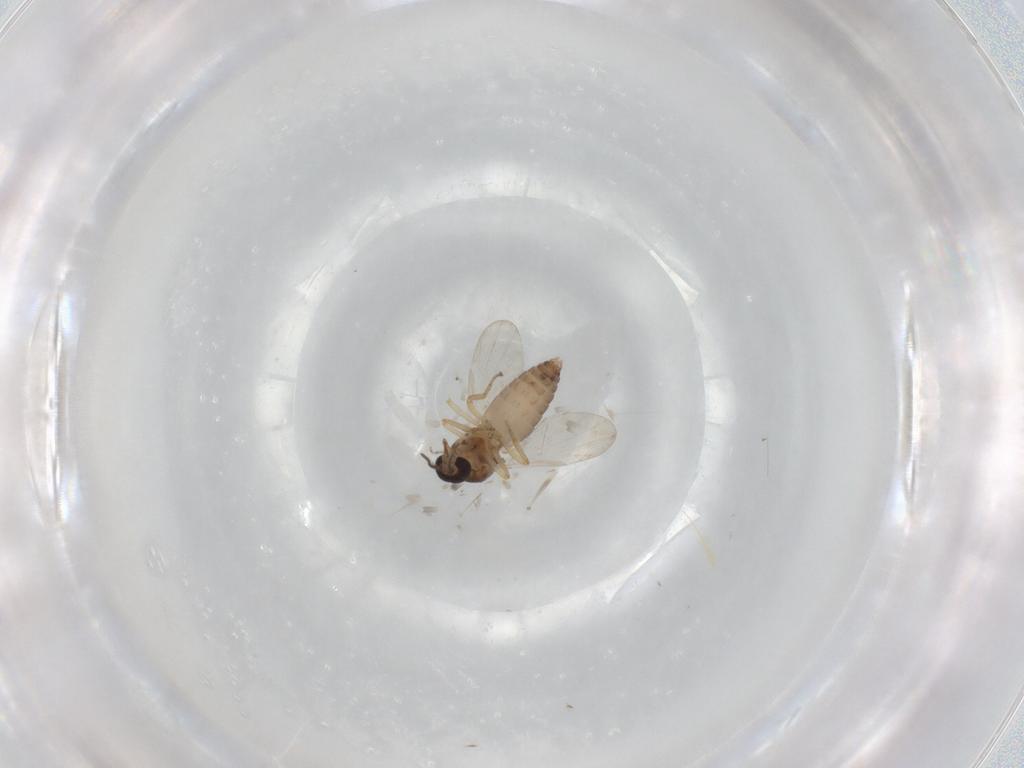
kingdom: Animalia
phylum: Arthropoda
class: Insecta
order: Diptera
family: Ceratopogonidae
